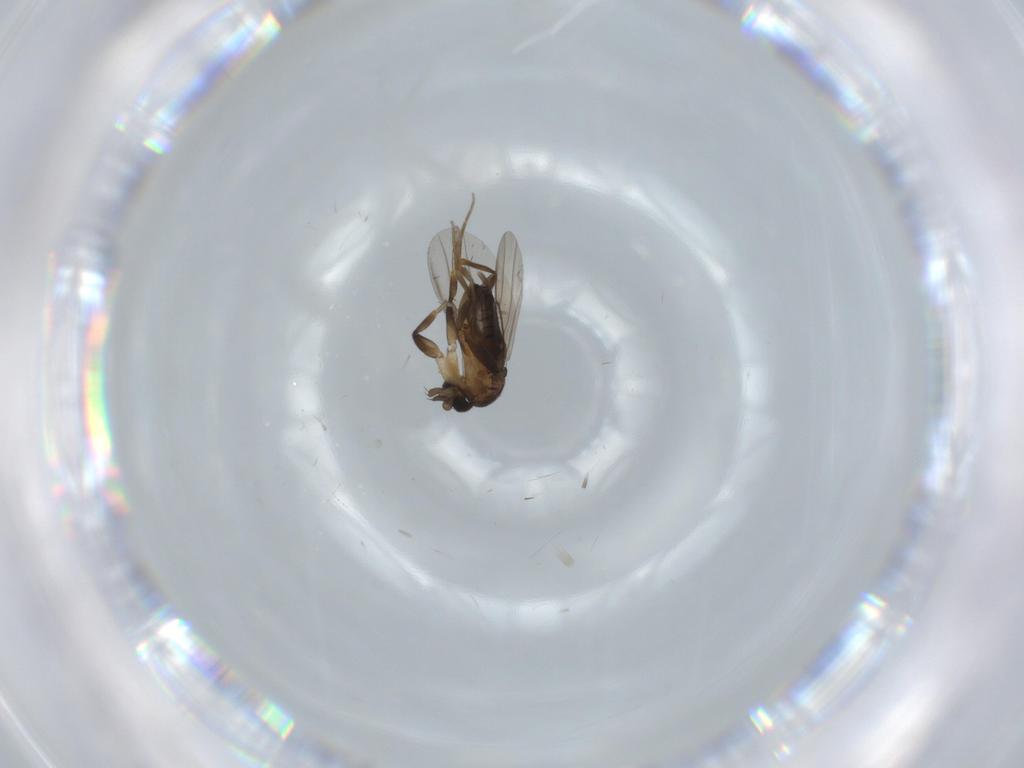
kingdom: Animalia
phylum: Arthropoda
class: Insecta
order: Diptera
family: Phoridae
